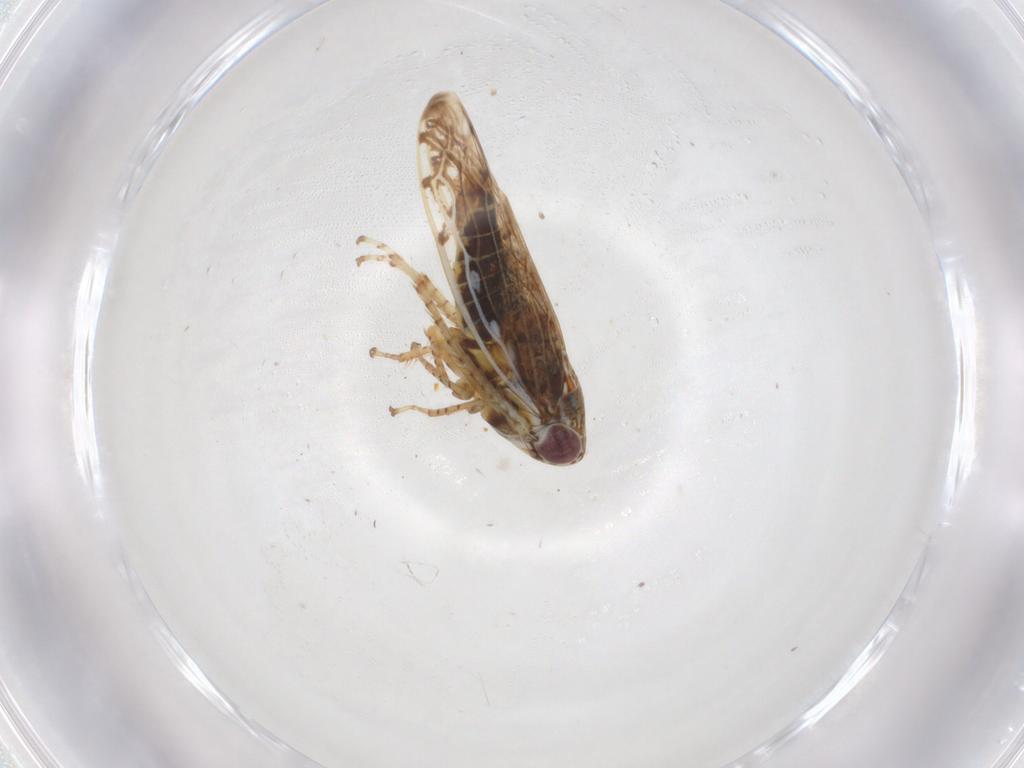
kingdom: Animalia
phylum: Arthropoda
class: Insecta
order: Hemiptera
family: Cicadellidae
